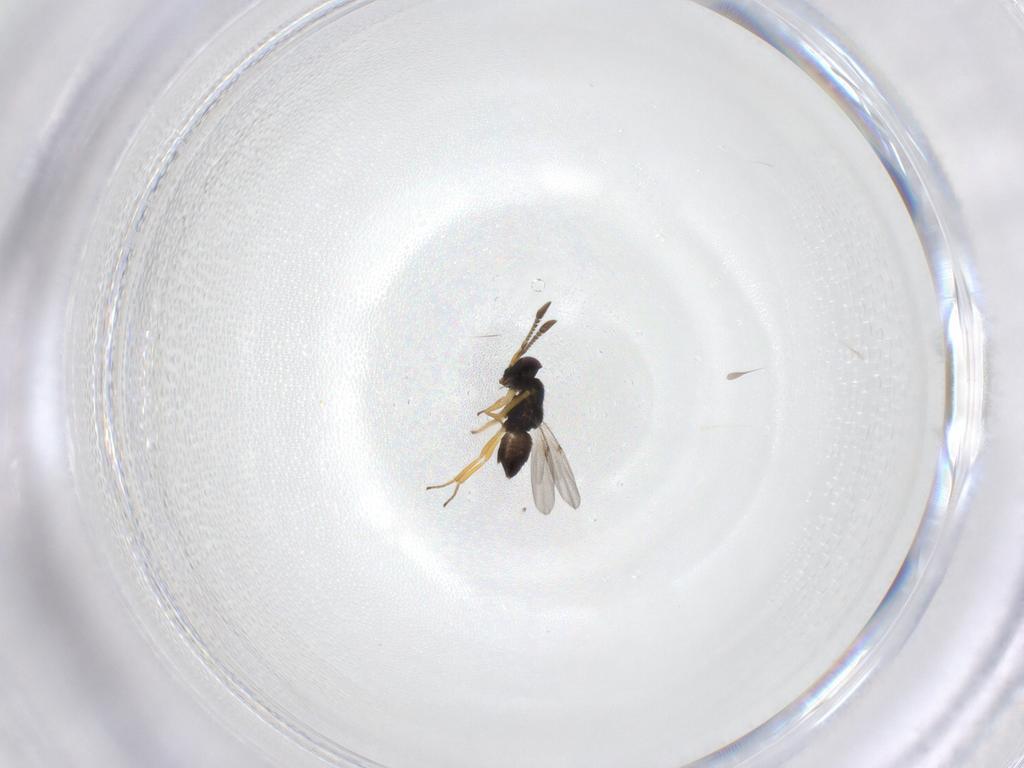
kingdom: Animalia
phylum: Arthropoda
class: Insecta
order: Hymenoptera
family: Encyrtidae
